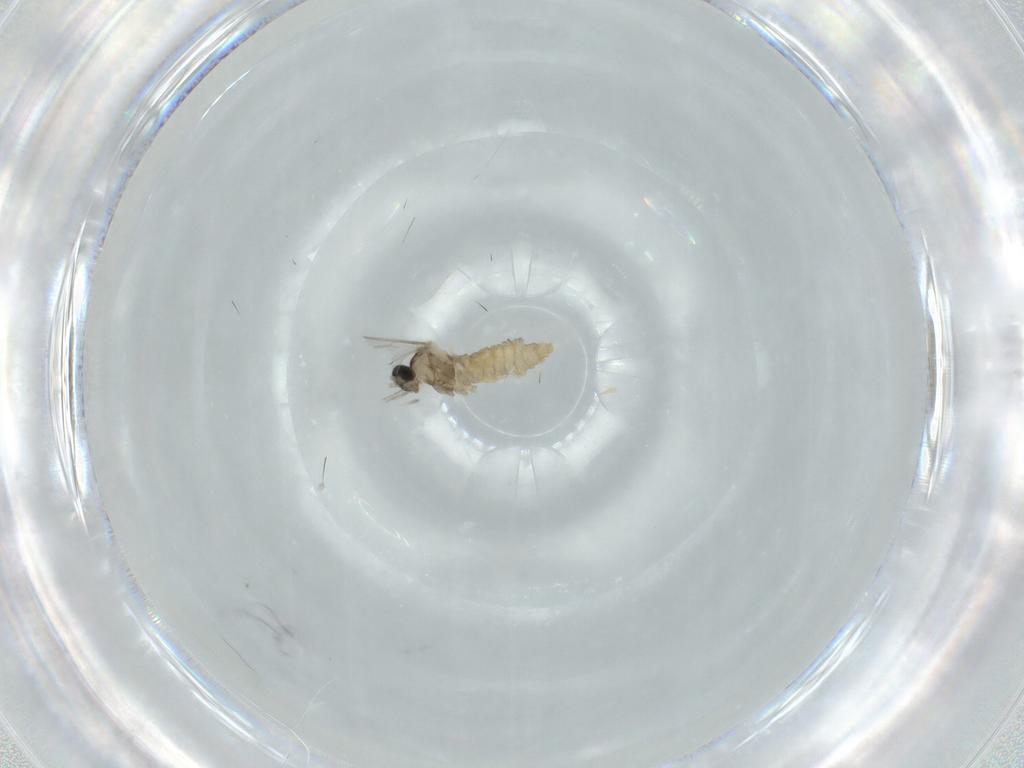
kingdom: Animalia
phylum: Arthropoda
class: Insecta
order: Diptera
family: Cecidomyiidae
